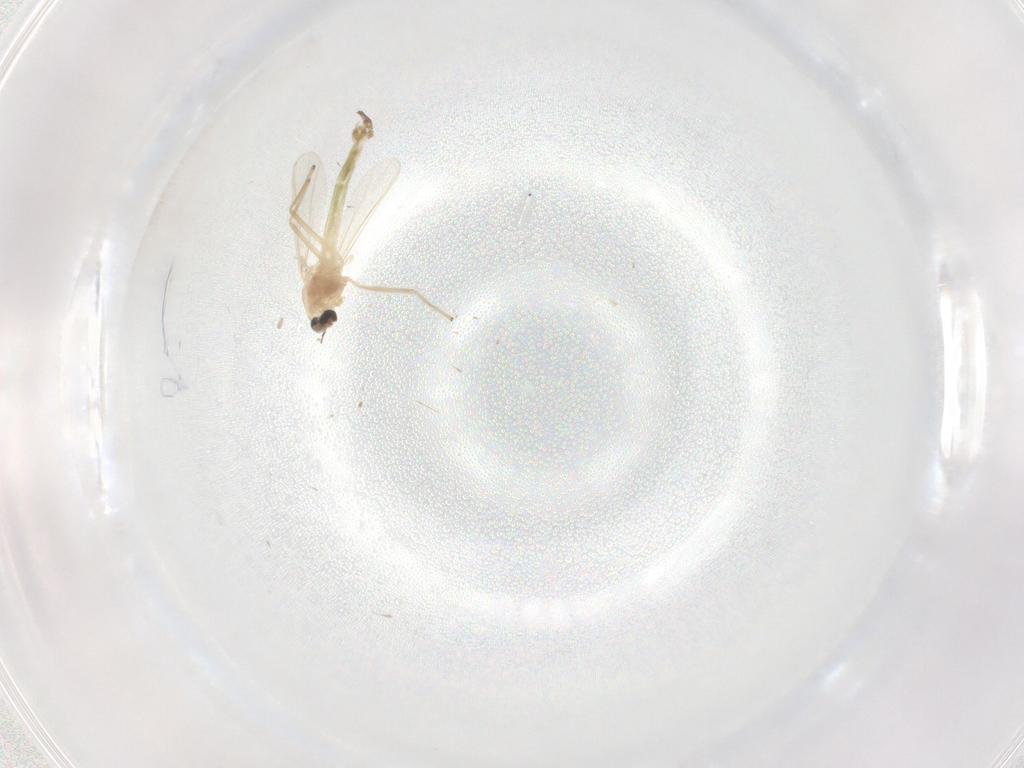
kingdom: Animalia
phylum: Arthropoda
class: Insecta
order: Diptera
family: Chironomidae
